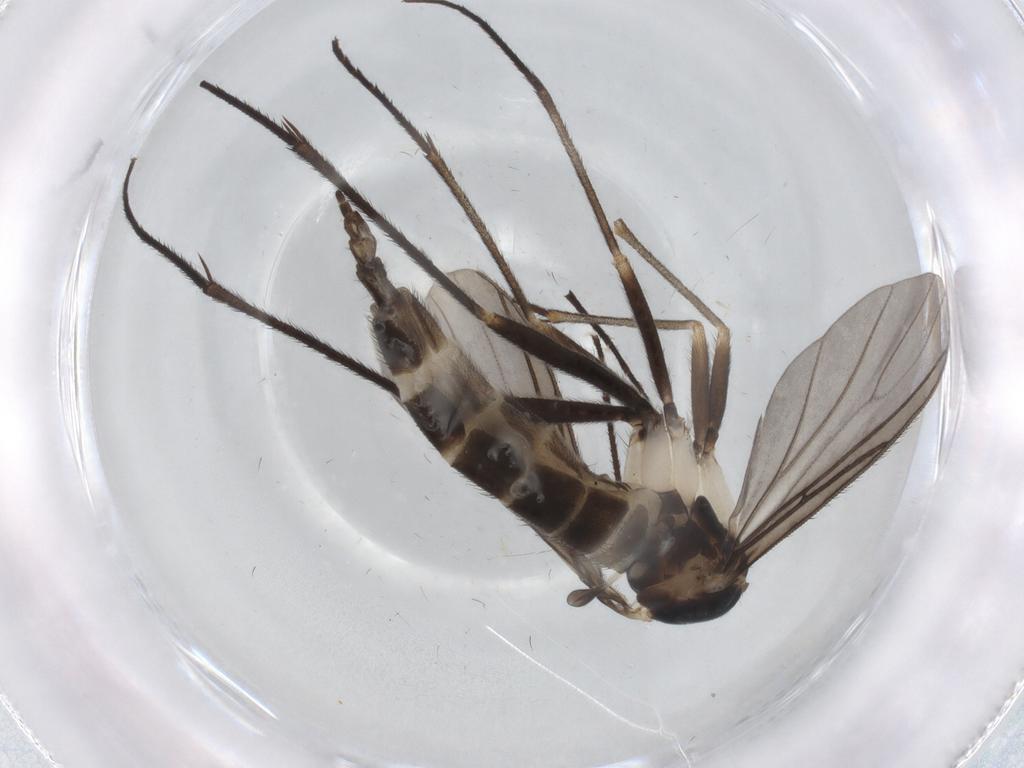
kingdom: Animalia
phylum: Arthropoda
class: Insecta
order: Diptera
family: Sciaridae
